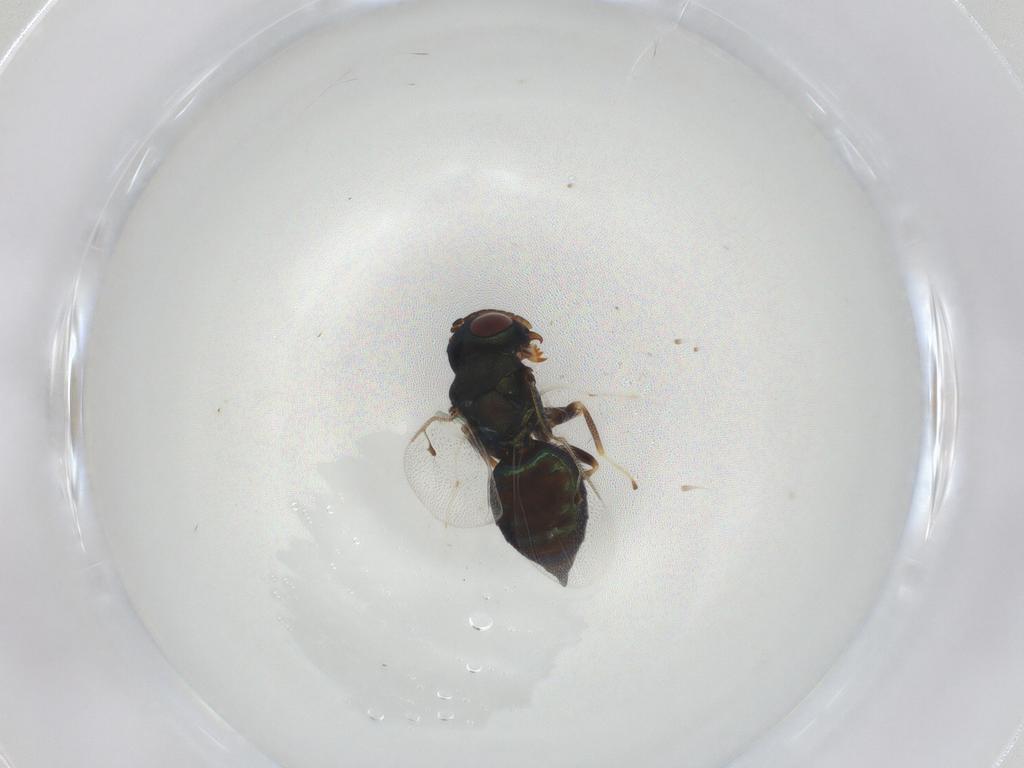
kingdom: Animalia
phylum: Arthropoda
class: Insecta
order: Hymenoptera
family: Pteromalidae
